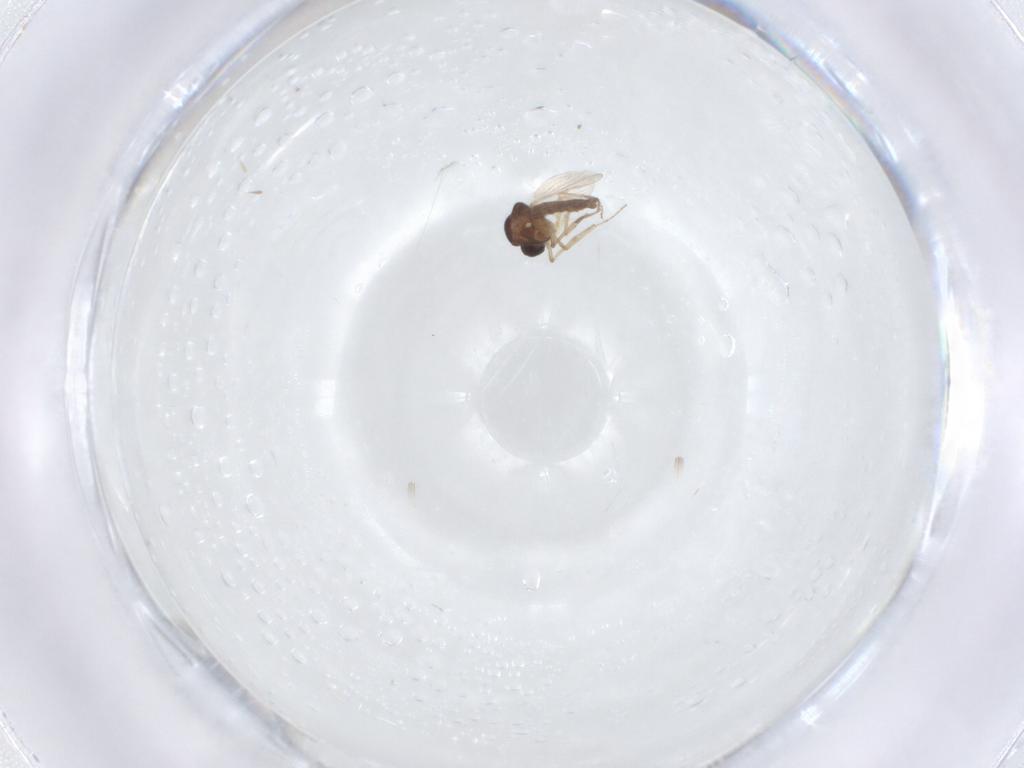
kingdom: Animalia
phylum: Arthropoda
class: Insecta
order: Diptera
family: Ceratopogonidae
